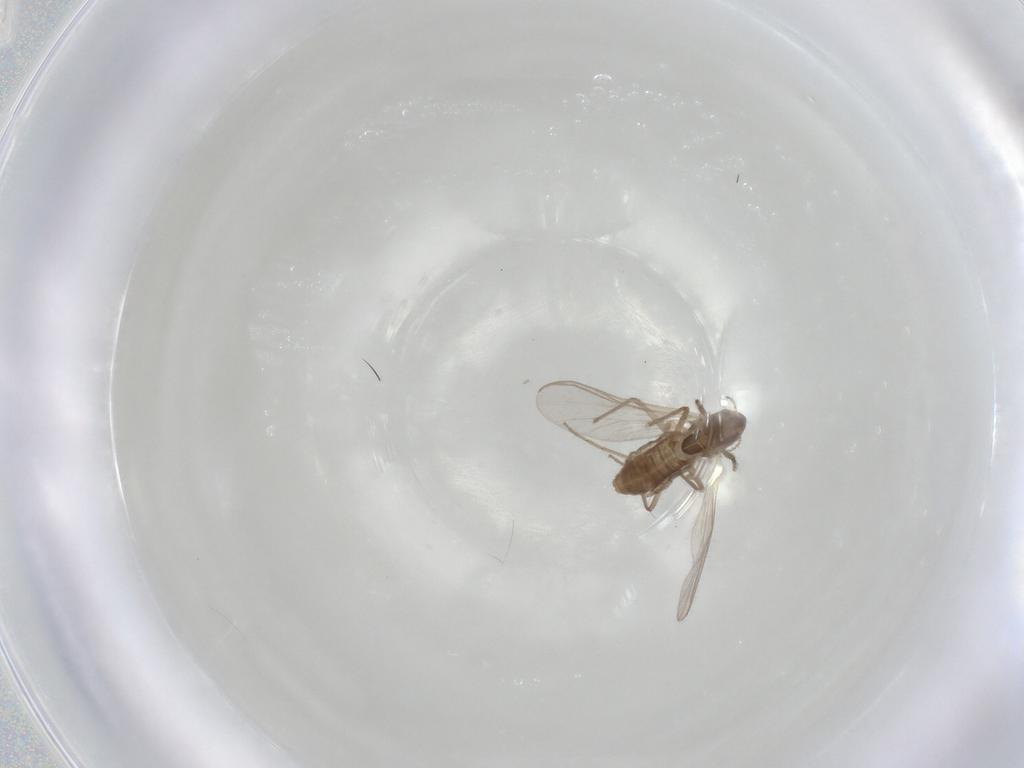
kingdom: Animalia
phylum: Arthropoda
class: Insecta
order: Diptera
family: Chironomidae
